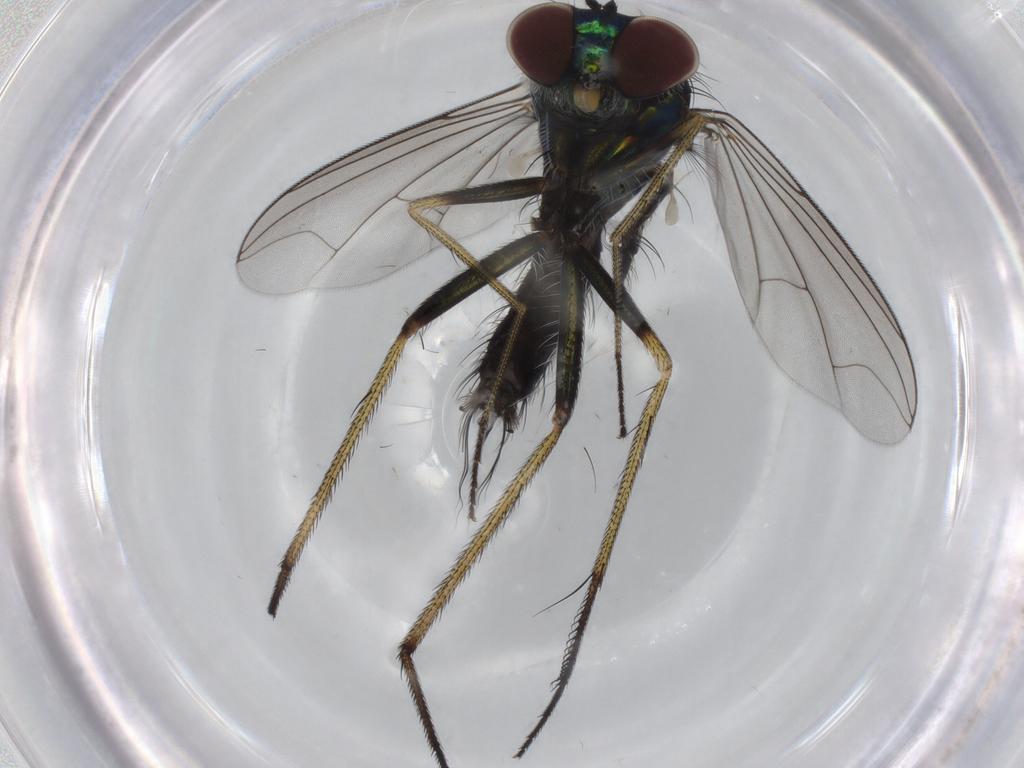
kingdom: Animalia
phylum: Arthropoda
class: Insecta
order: Diptera
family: Dolichopodidae
